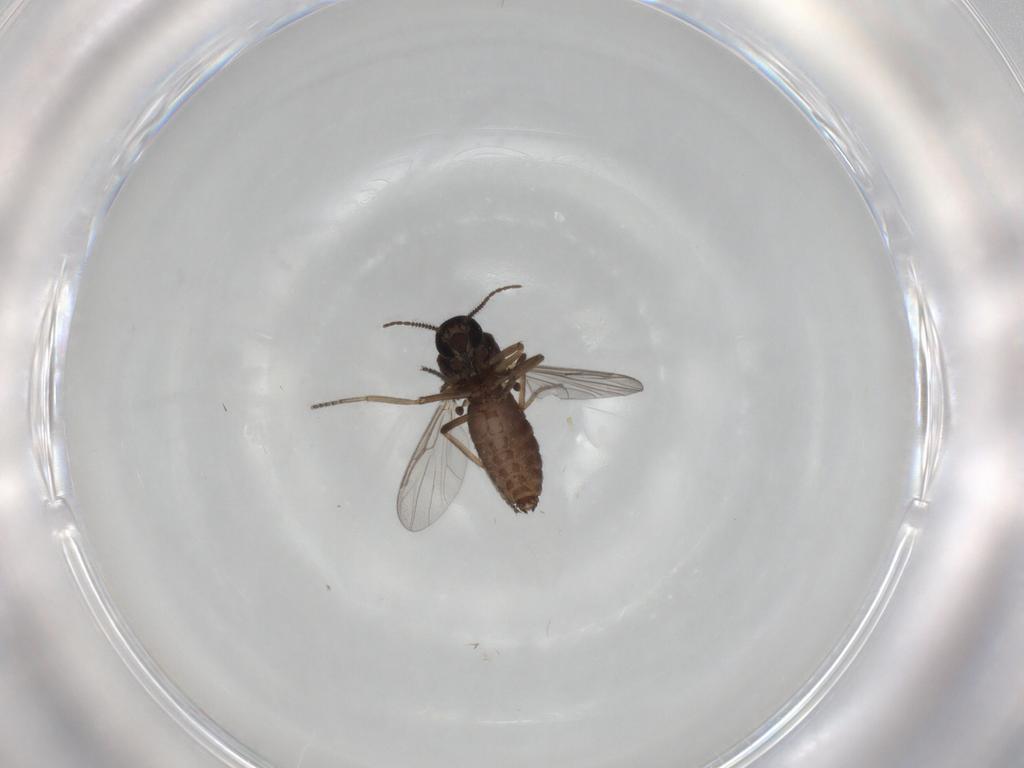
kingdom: Animalia
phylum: Arthropoda
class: Insecta
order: Diptera
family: Ceratopogonidae
